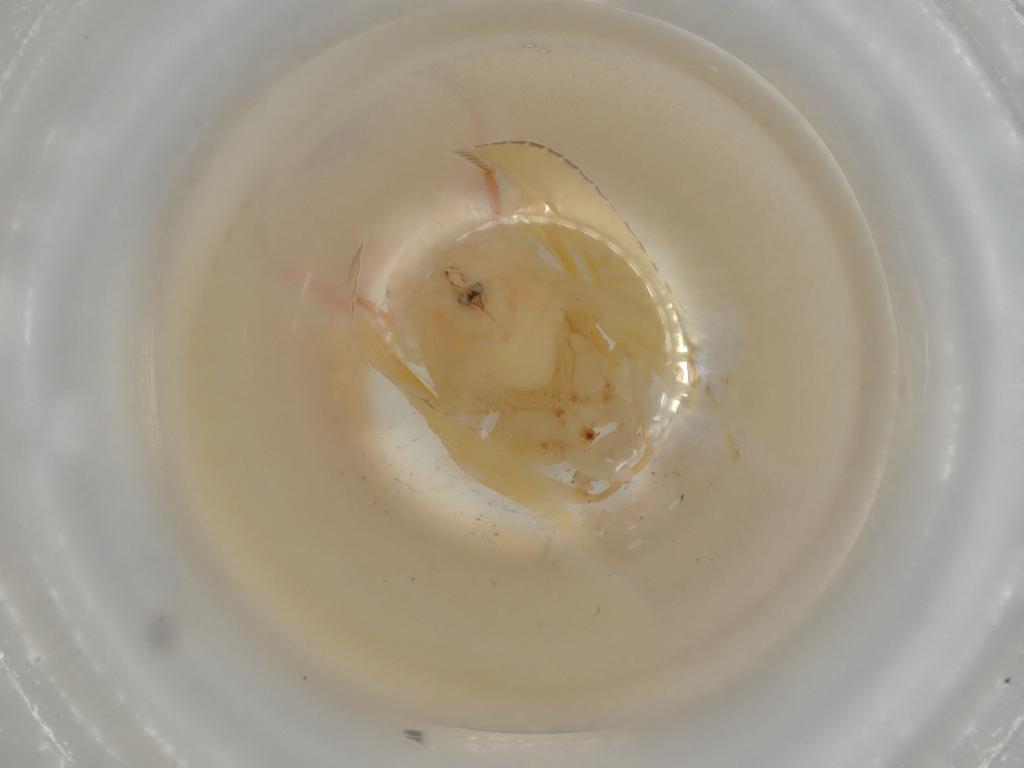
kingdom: Animalia
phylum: Arthropoda
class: Insecta
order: Hemiptera
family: Flatidae
